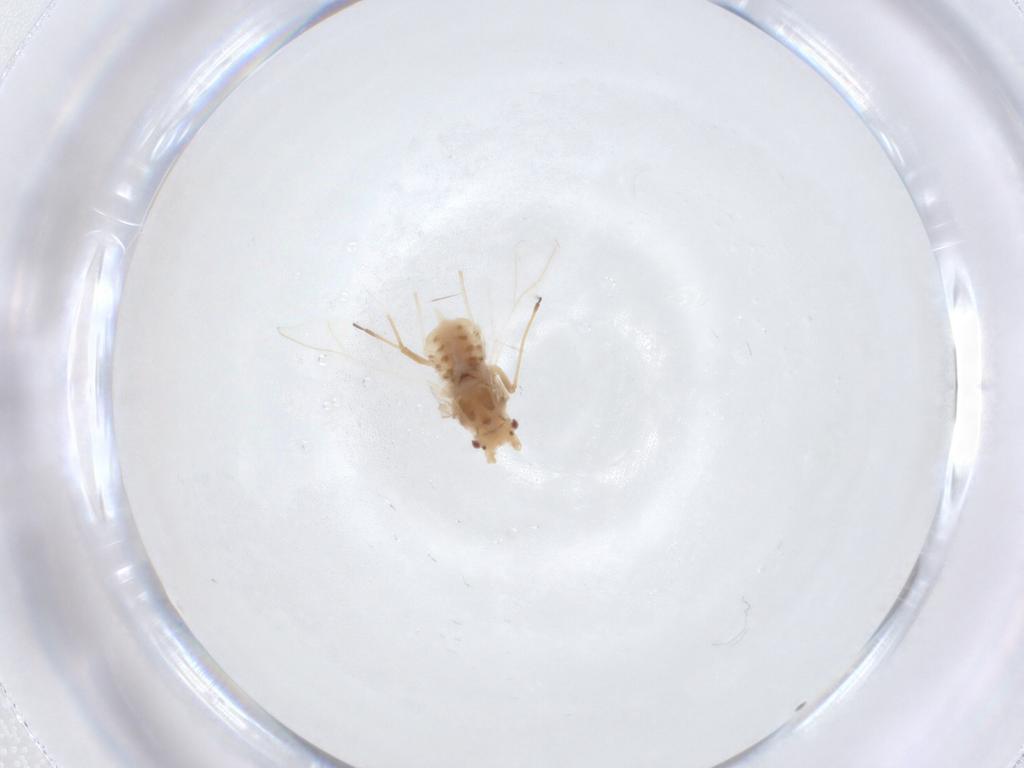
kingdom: Animalia
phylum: Arthropoda
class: Insecta
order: Hemiptera
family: Aphididae
